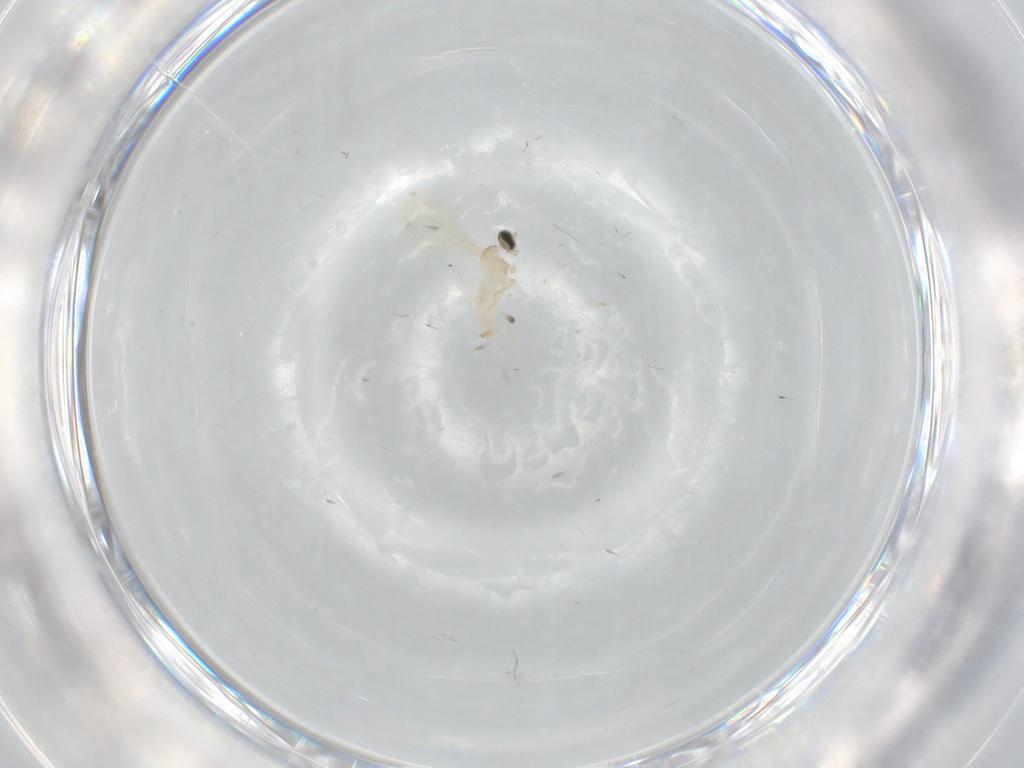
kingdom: Animalia
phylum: Arthropoda
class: Insecta
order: Diptera
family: Cecidomyiidae
